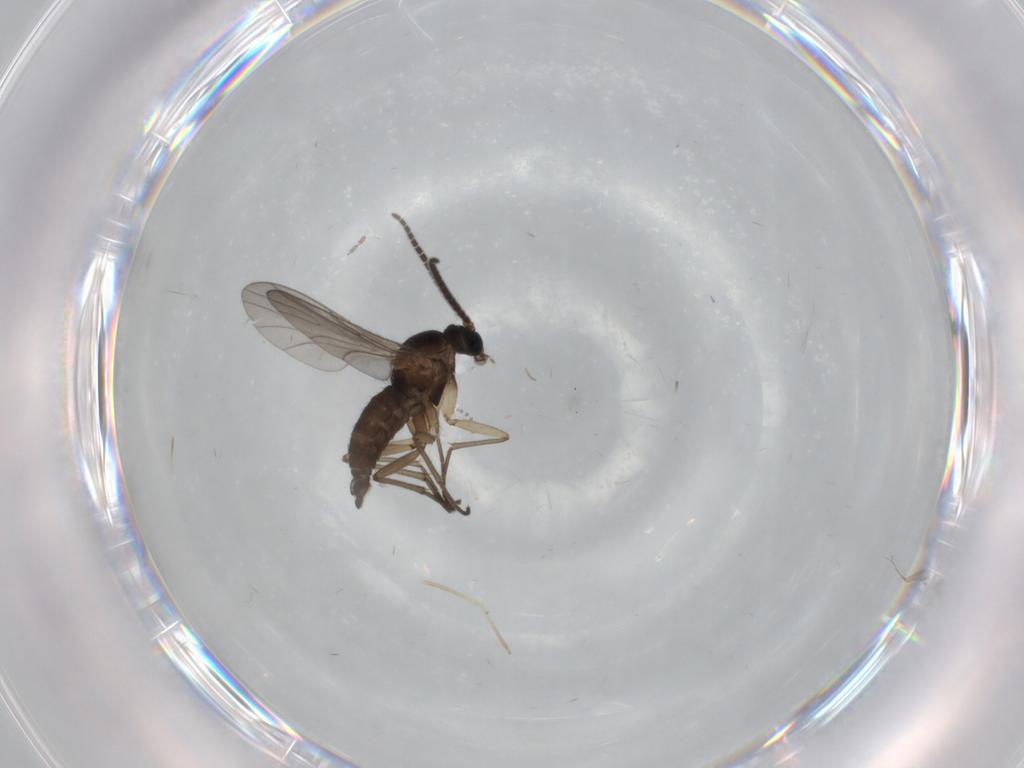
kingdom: Animalia
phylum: Arthropoda
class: Insecta
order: Diptera
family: Sciaridae
